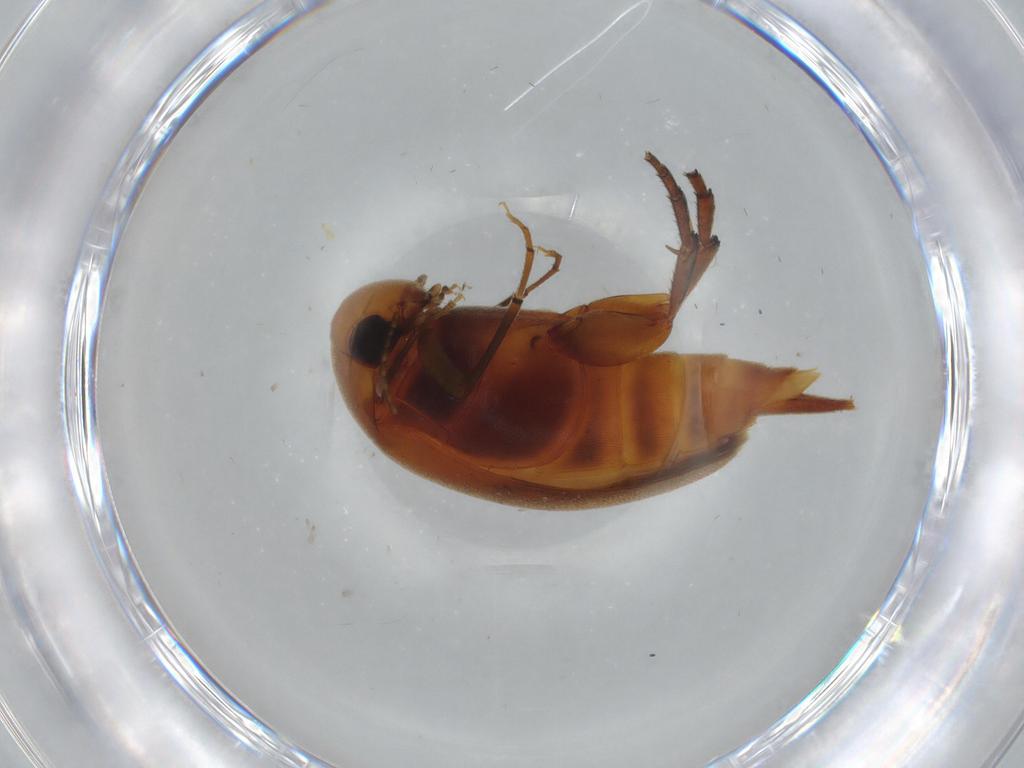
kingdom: Animalia
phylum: Arthropoda
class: Insecta
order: Coleoptera
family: Mordellidae
